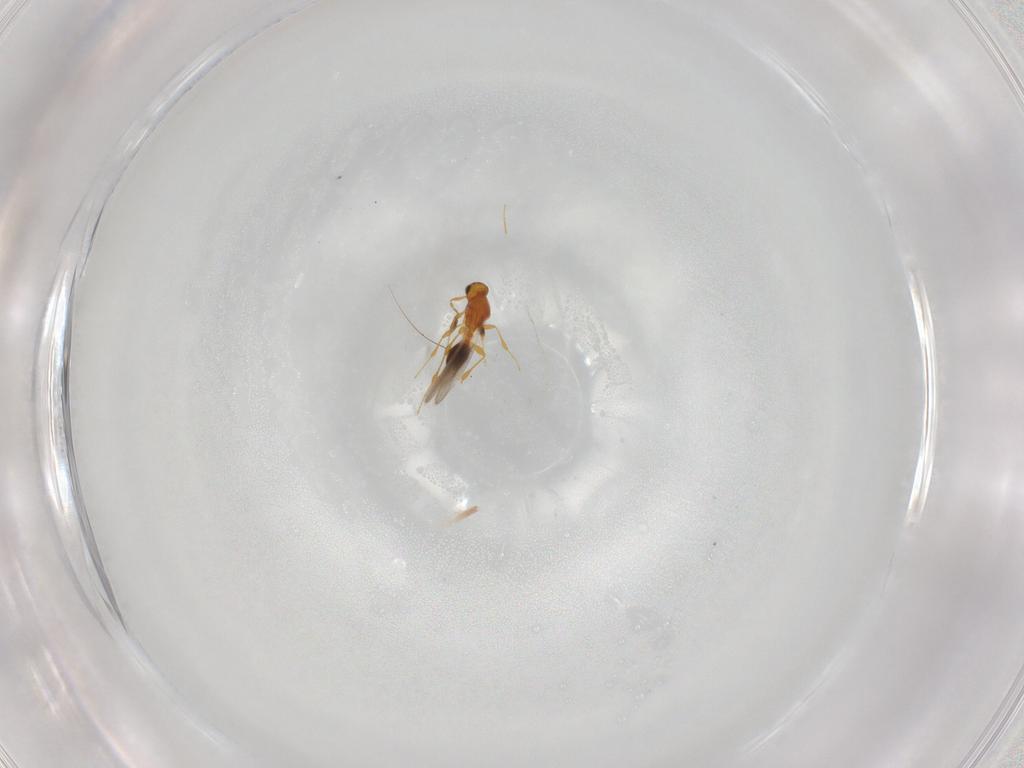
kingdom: Animalia
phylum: Arthropoda
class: Insecta
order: Hymenoptera
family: Platygastridae
